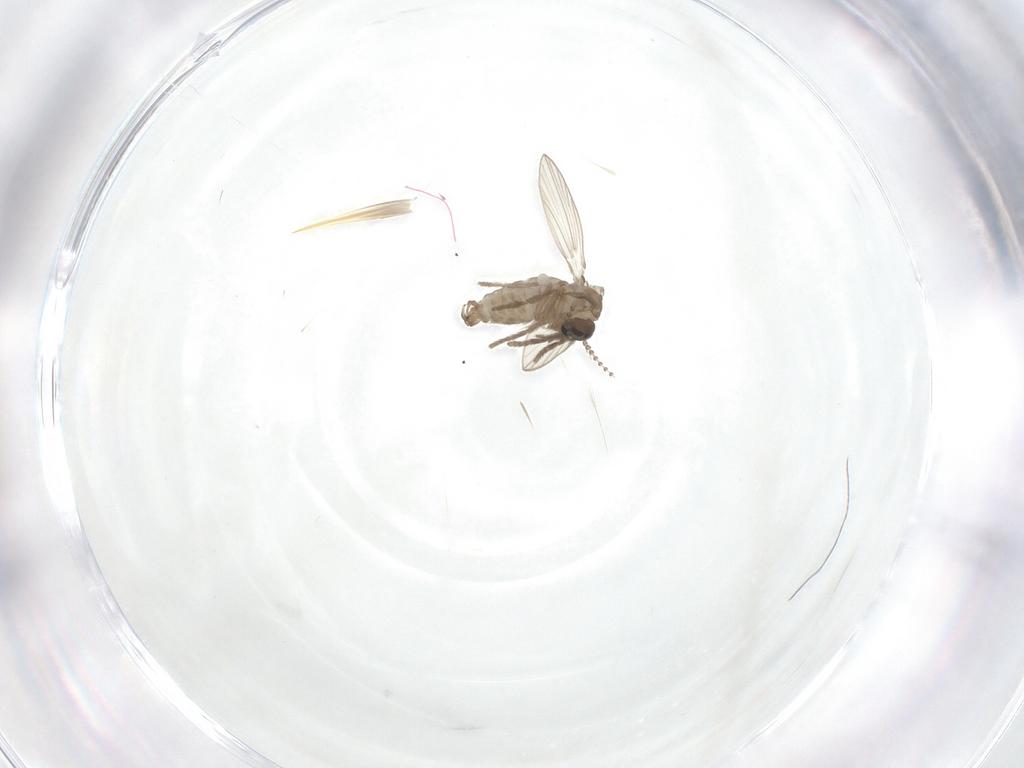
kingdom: Animalia
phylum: Arthropoda
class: Insecta
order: Diptera
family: Psychodidae
